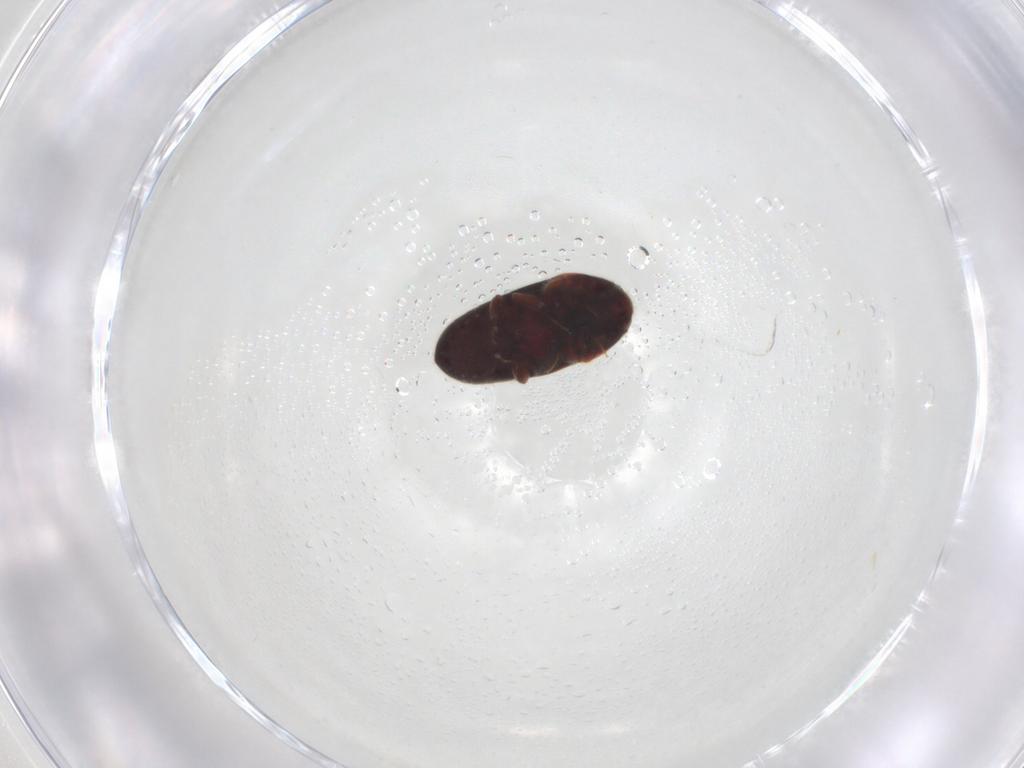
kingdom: Animalia
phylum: Arthropoda
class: Insecta
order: Coleoptera
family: Throscidae
